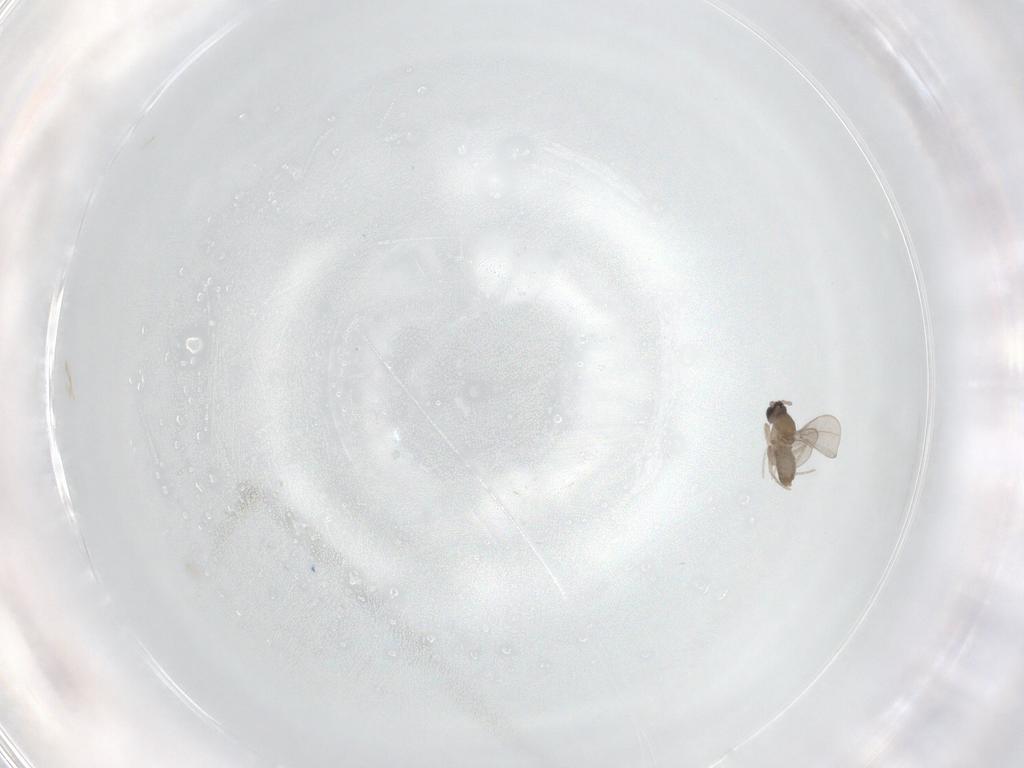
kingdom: Animalia
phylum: Arthropoda
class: Insecta
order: Diptera
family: Cecidomyiidae
